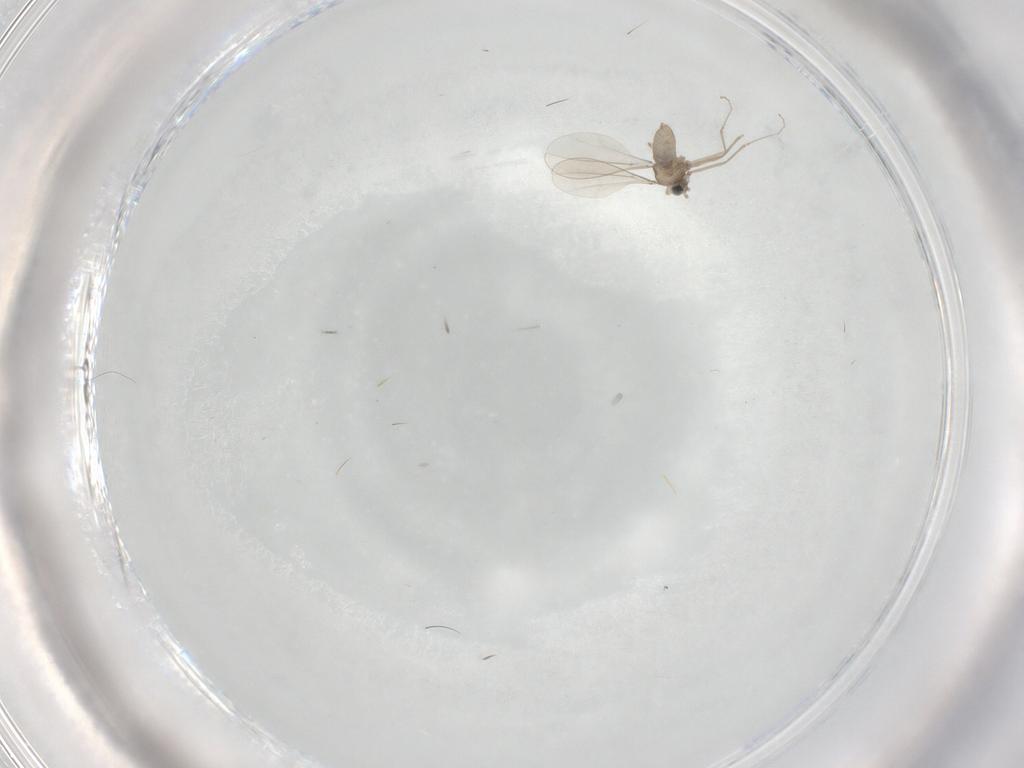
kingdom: Animalia
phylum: Arthropoda
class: Insecta
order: Diptera
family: Cecidomyiidae
